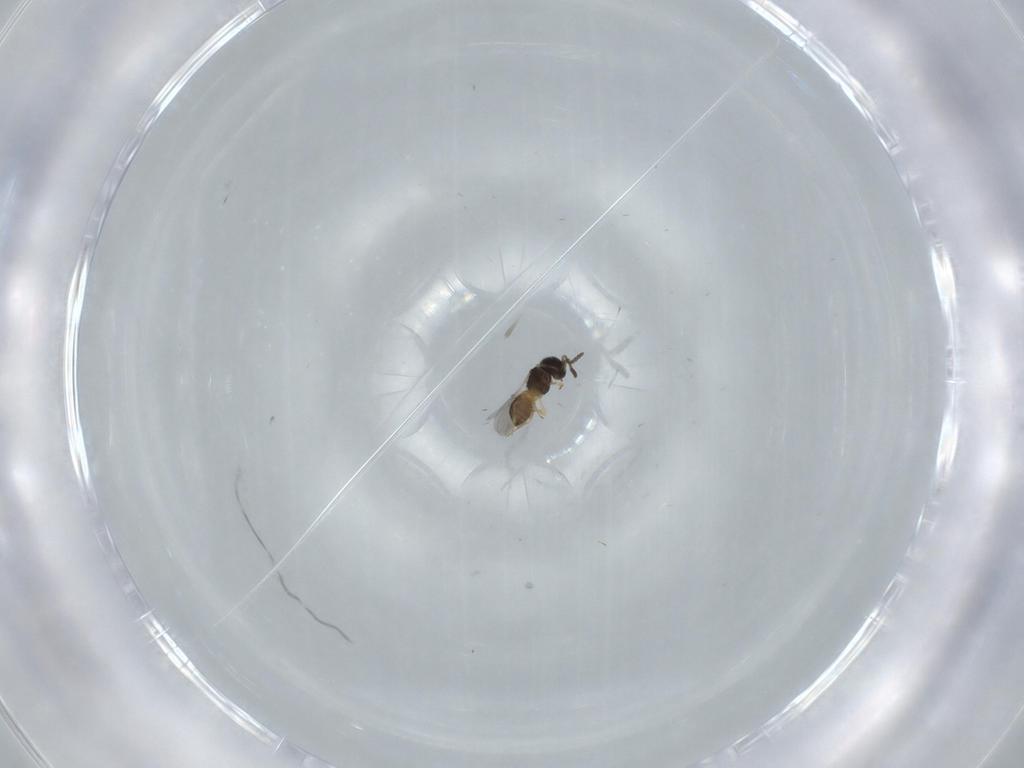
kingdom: Animalia
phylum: Arthropoda
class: Insecta
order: Hymenoptera
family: Scelionidae
